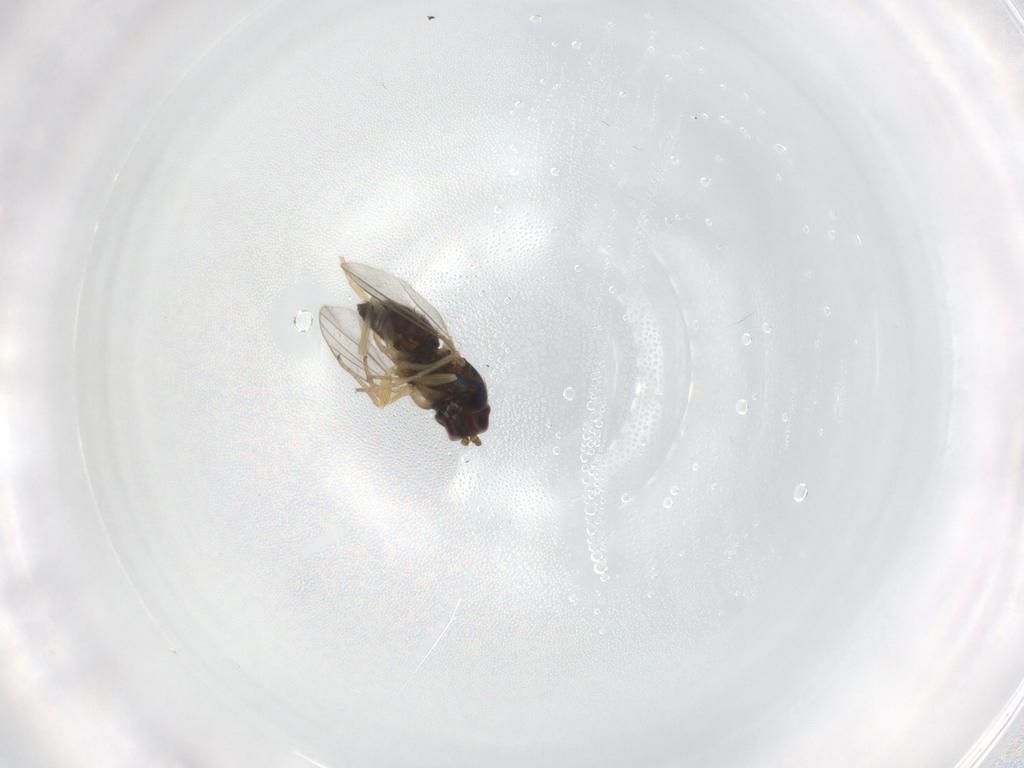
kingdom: Animalia
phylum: Arthropoda
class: Insecta
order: Diptera
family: Dolichopodidae
